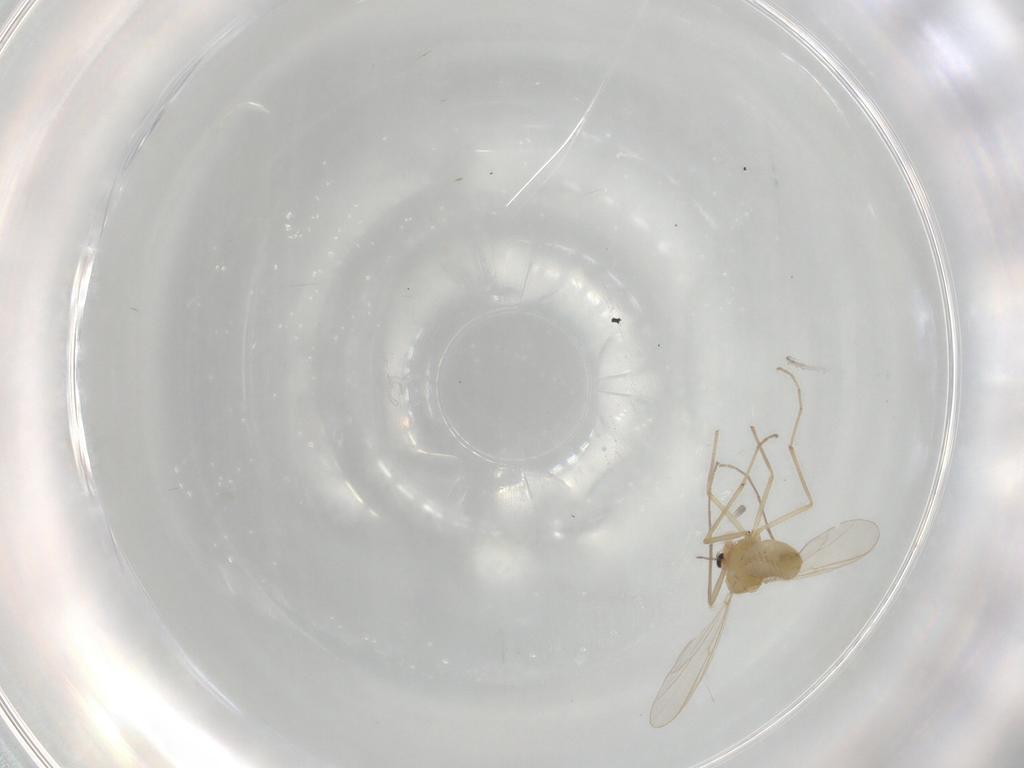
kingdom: Animalia
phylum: Arthropoda
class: Insecta
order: Diptera
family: Chironomidae
